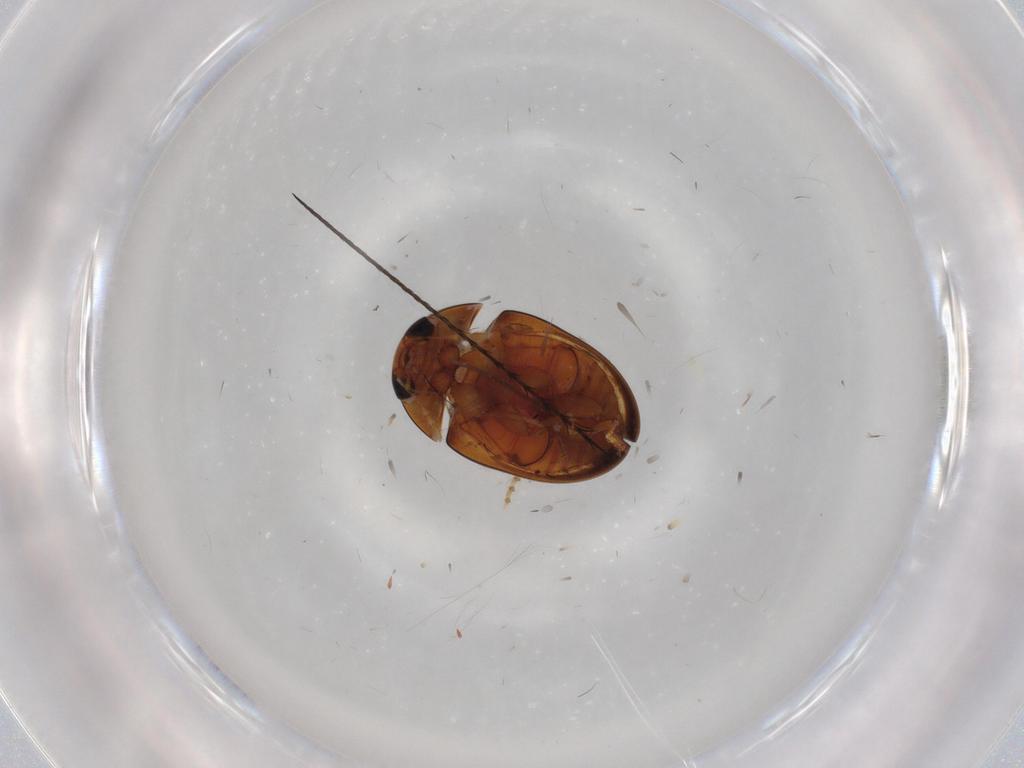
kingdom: Animalia
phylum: Arthropoda
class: Insecta
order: Coleoptera
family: Phalacridae
